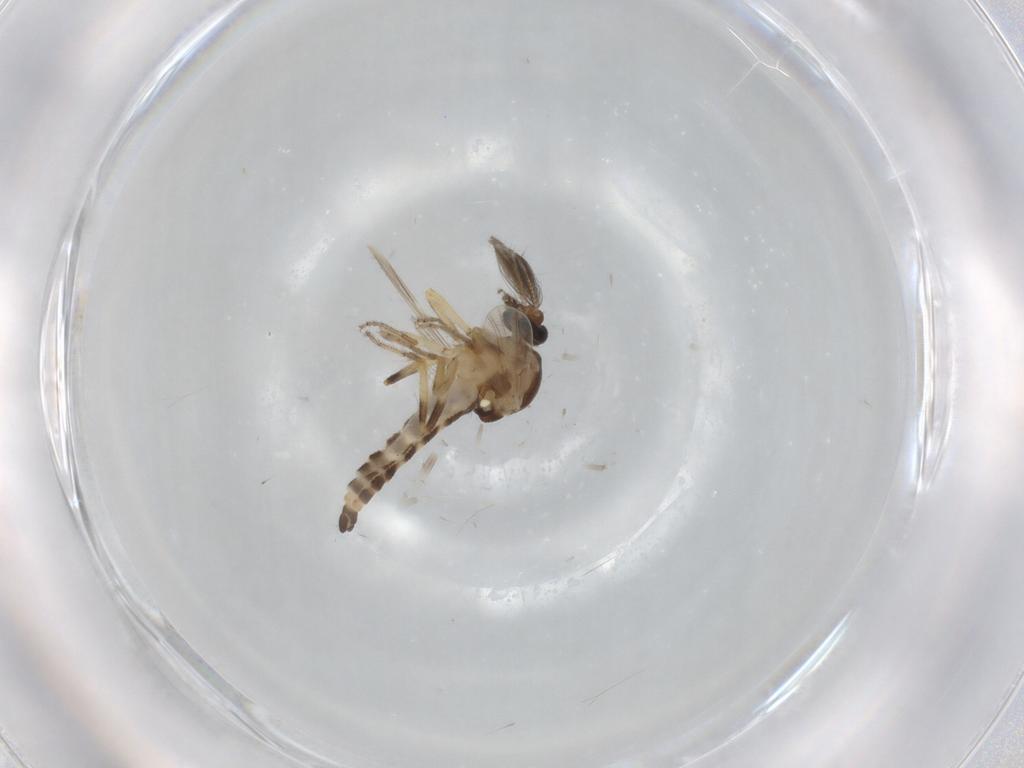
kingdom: Animalia
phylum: Arthropoda
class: Insecta
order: Diptera
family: Ceratopogonidae
